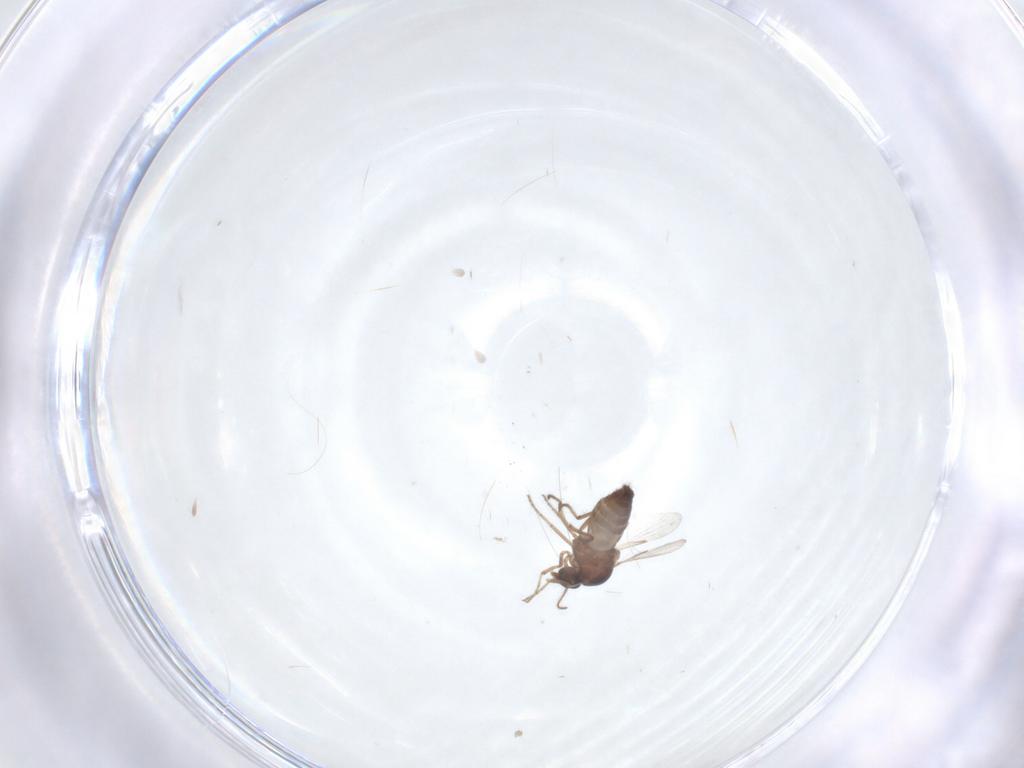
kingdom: Animalia
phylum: Arthropoda
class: Insecta
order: Diptera
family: Ceratopogonidae
